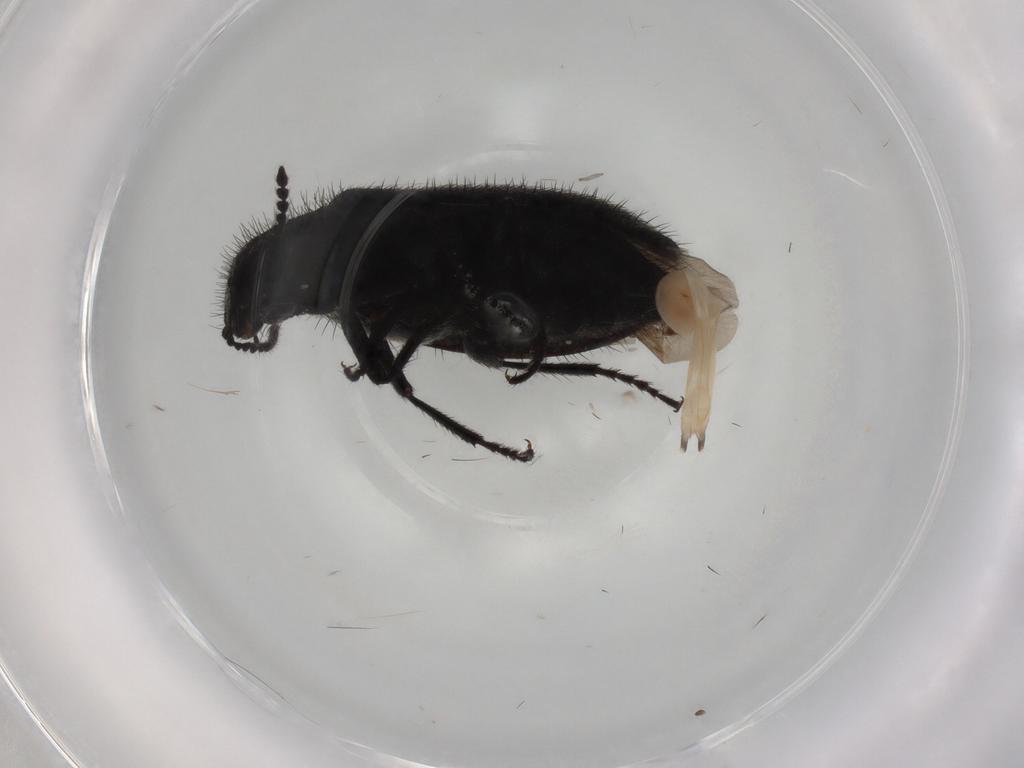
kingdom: Animalia
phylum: Arthropoda
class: Insecta
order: Coleoptera
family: Dasytidae
